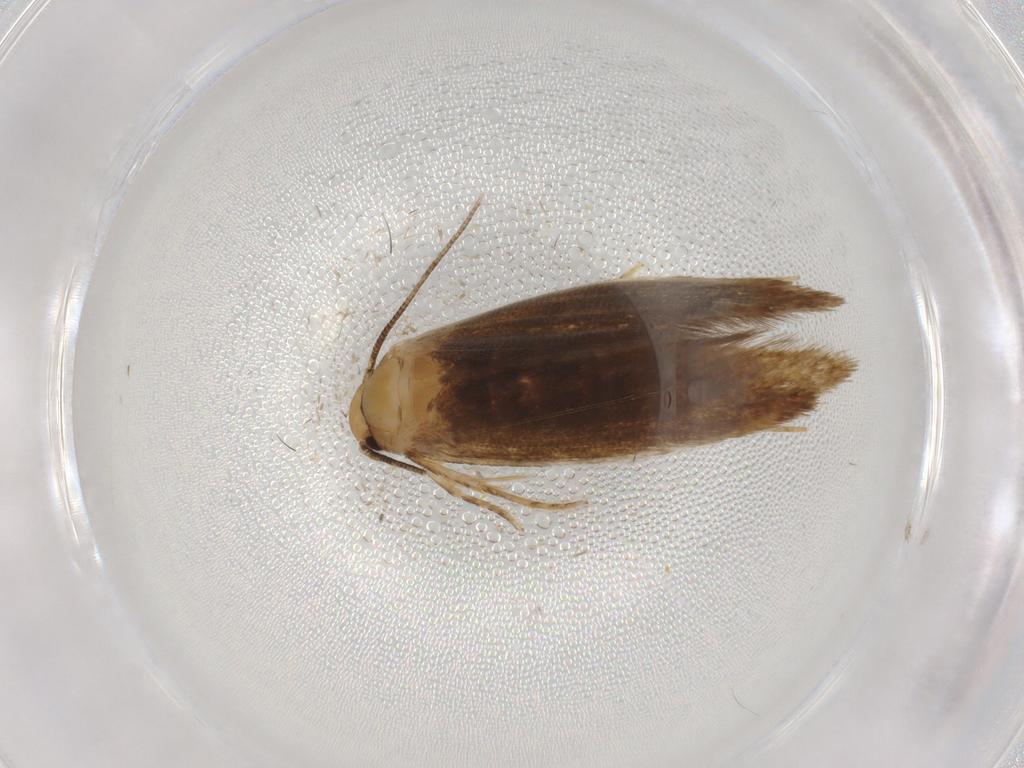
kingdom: Animalia
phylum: Arthropoda
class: Insecta
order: Lepidoptera
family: Tineidae
